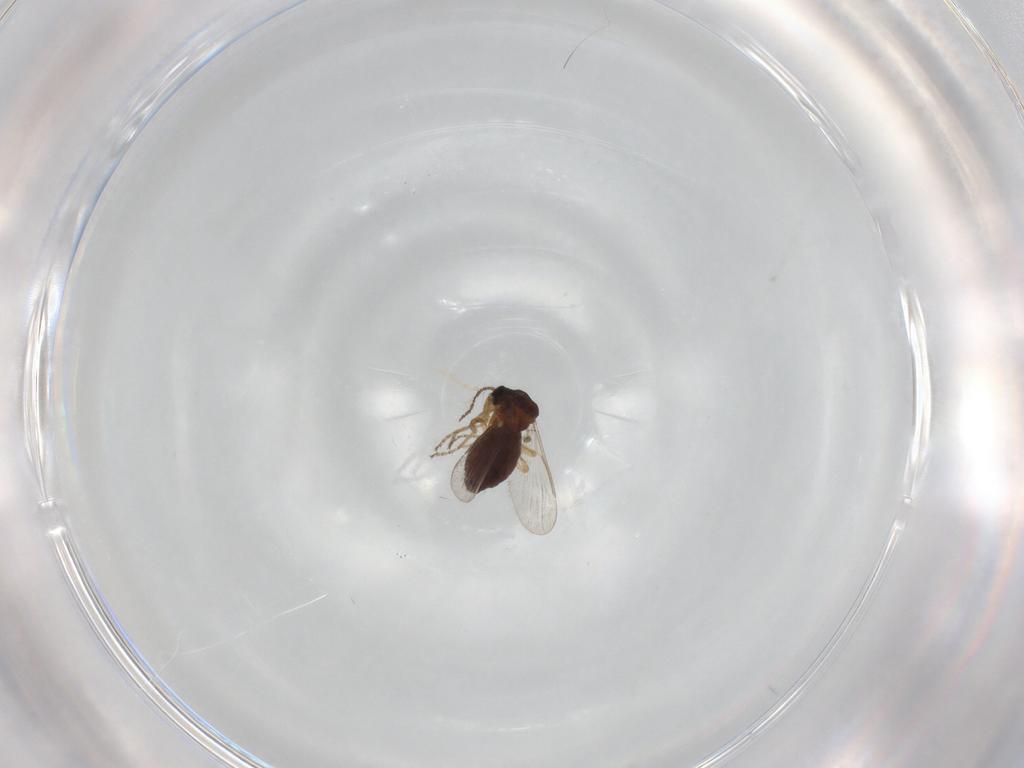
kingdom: Animalia
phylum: Arthropoda
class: Insecta
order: Diptera
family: Ceratopogonidae
